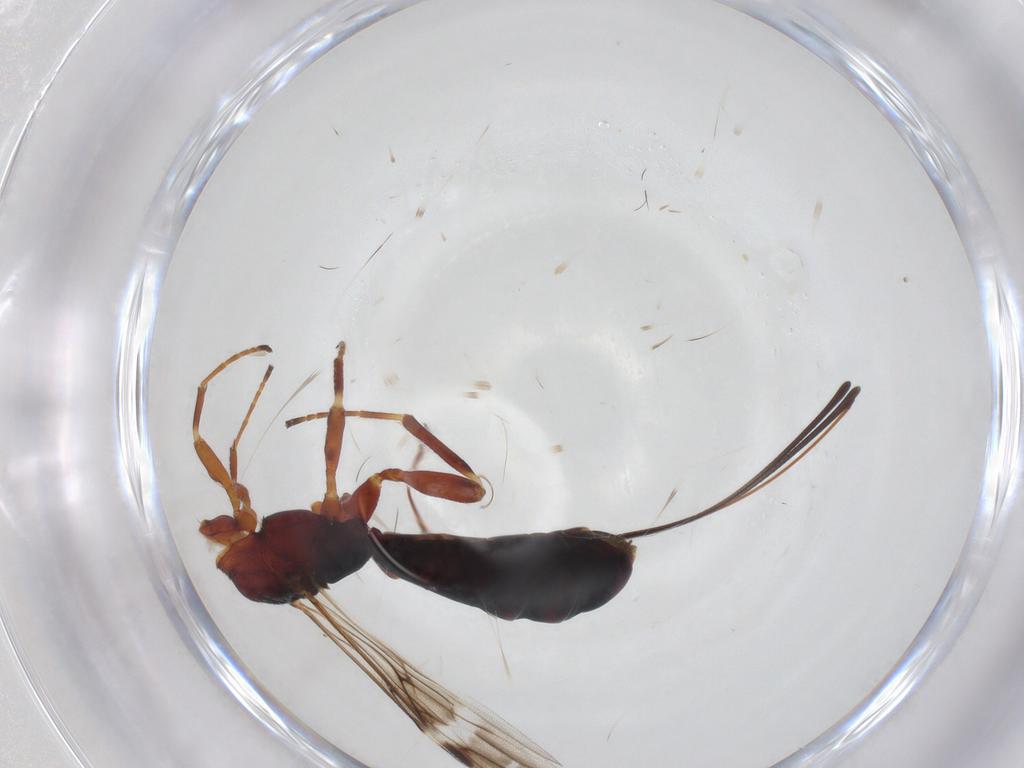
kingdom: Animalia
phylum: Arthropoda
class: Insecta
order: Hymenoptera
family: Braconidae
